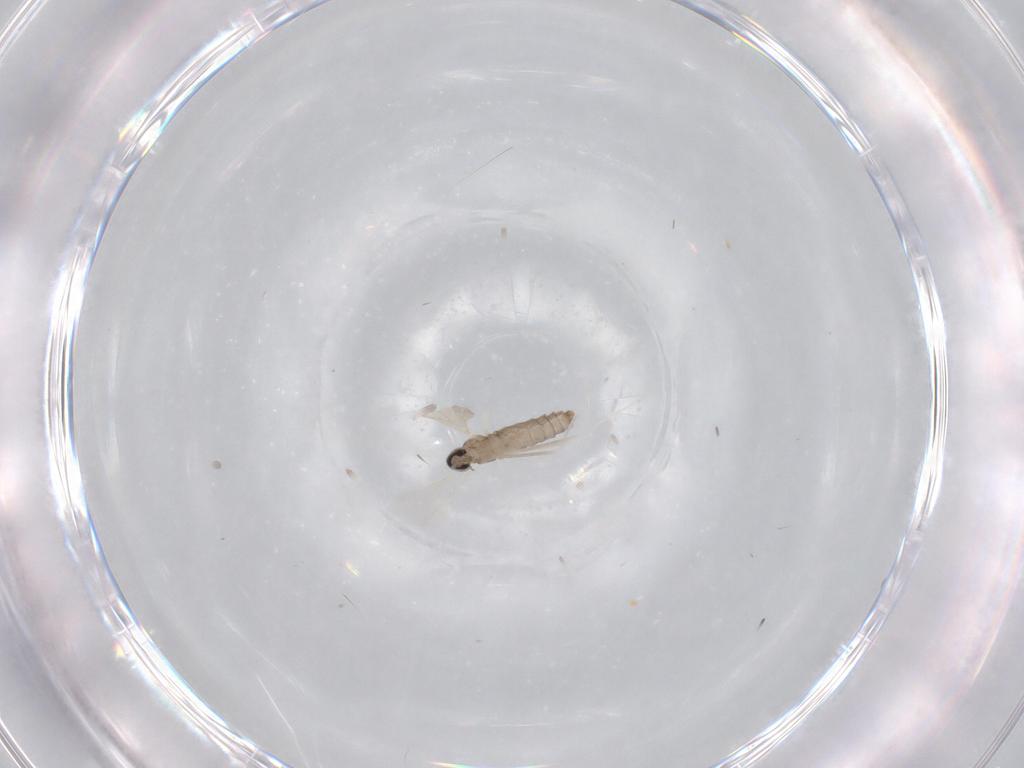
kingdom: Animalia
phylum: Arthropoda
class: Insecta
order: Diptera
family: Cecidomyiidae
